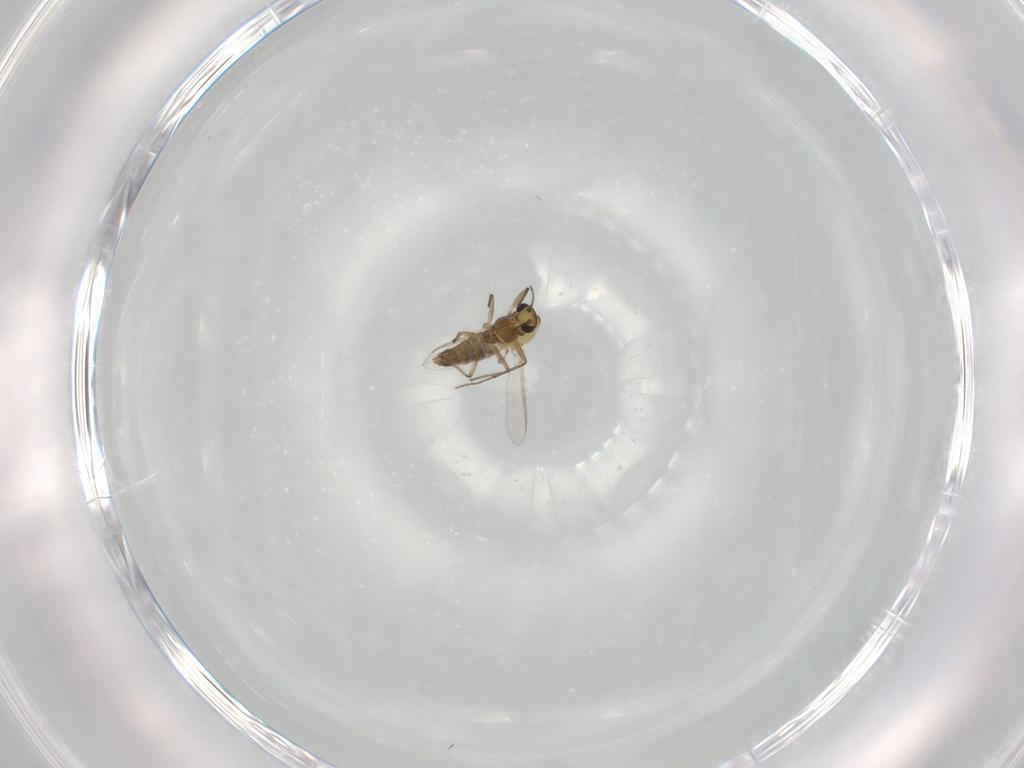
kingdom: Animalia
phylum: Arthropoda
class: Insecta
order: Diptera
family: Chironomidae
